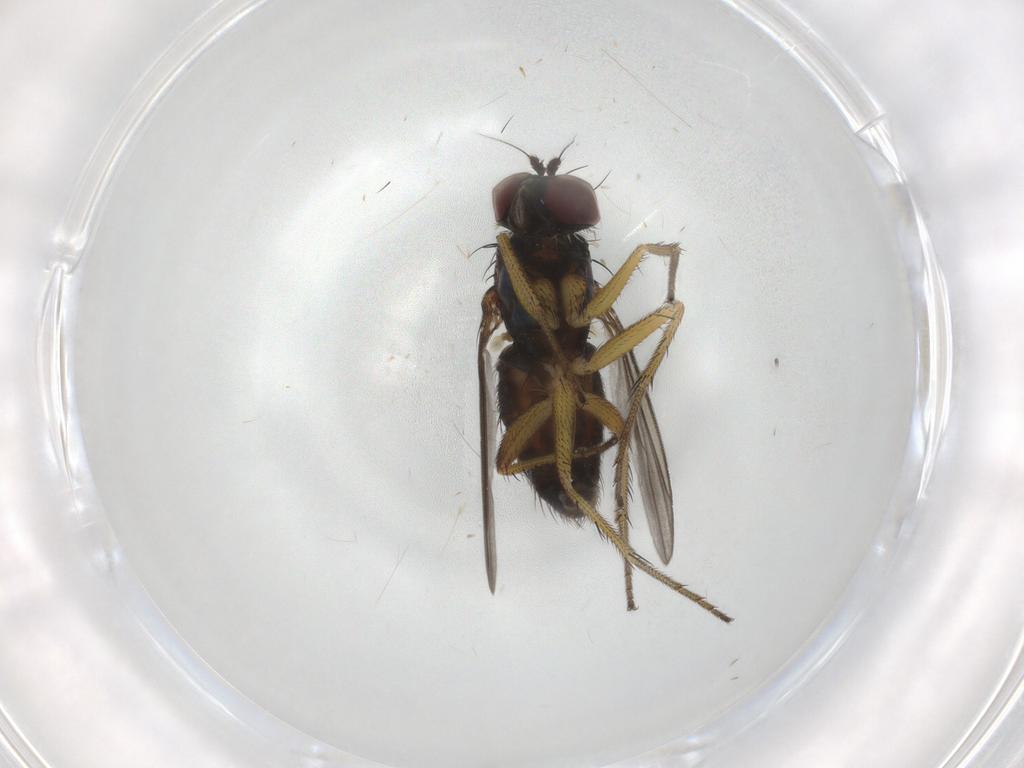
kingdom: Animalia
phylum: Arthropoda
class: Insecta
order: Diptera
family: Dolichopodidae
